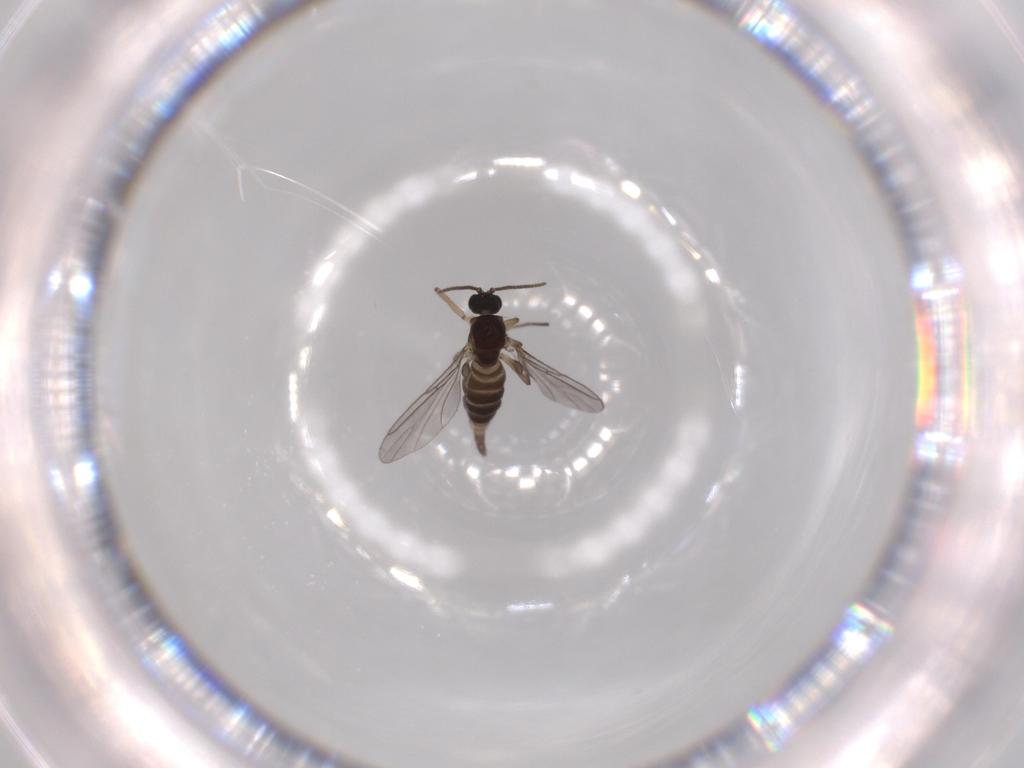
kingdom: Animalia
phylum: Arthropoda
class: Insecta
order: Diptera
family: Sciaridae
